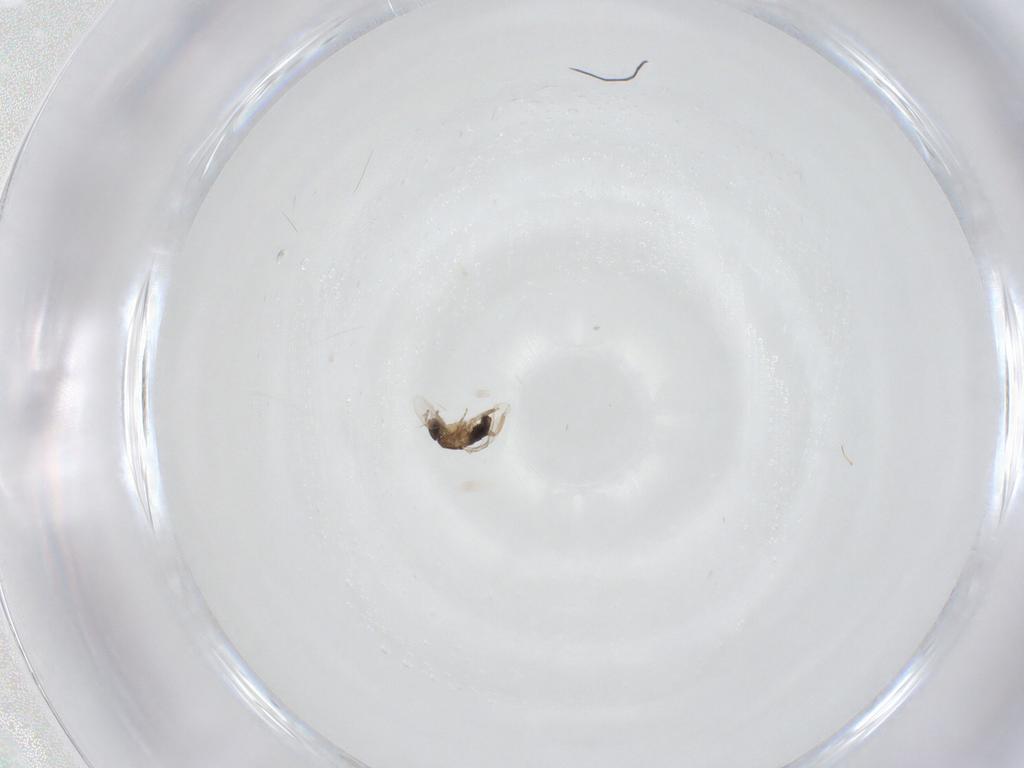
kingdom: Animalia
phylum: Arthropoda
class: Insecta
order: Diptera
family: Phoridae
